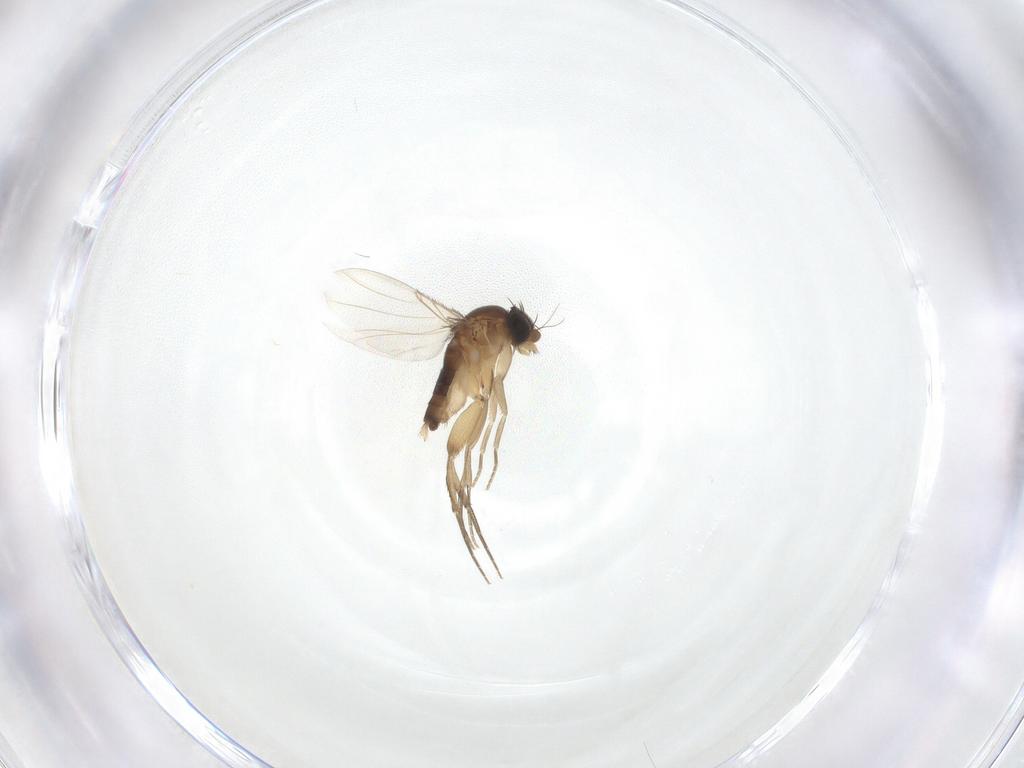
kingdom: Animalia
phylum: Arthropoda
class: Insecta
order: Diptera
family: Phoridae
